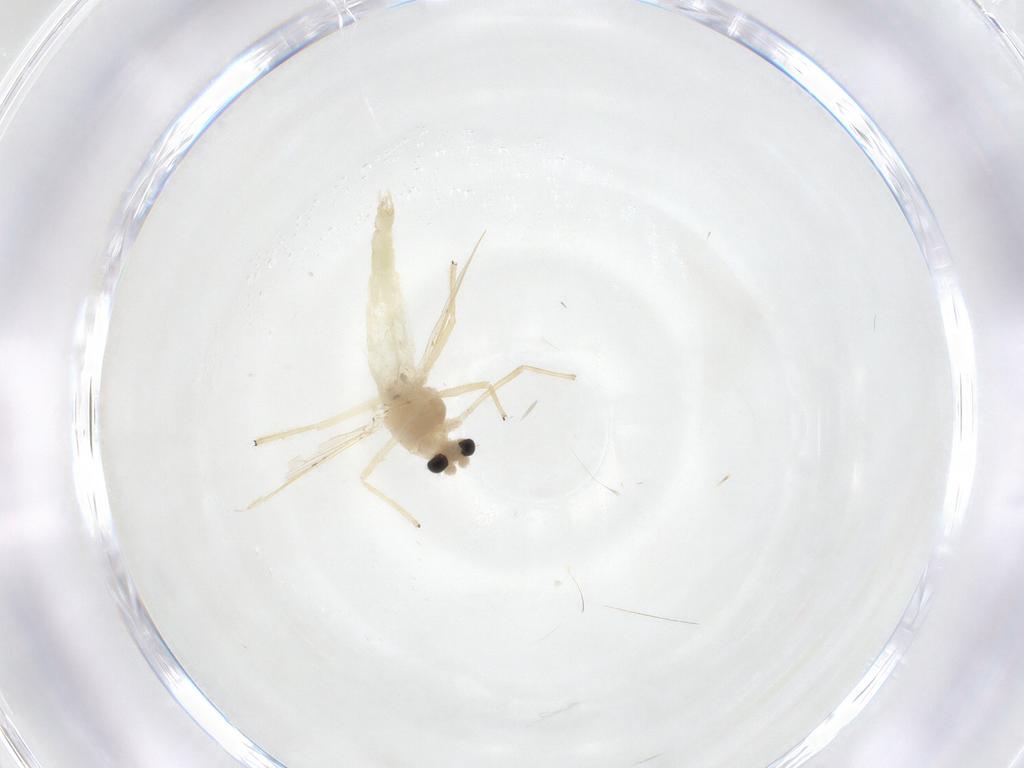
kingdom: Animalia
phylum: Arthropoda
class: Insecta
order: Diptera
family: Chironomidae
